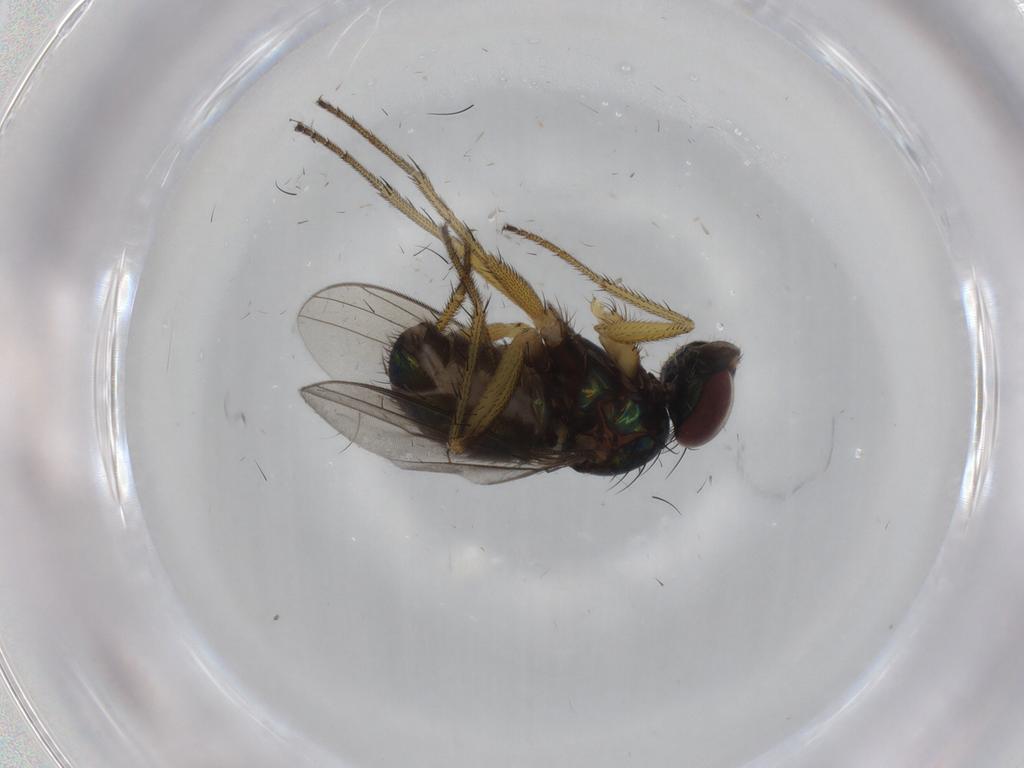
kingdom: Animalia
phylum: Arthropoda
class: Insecta
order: Diptera
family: Dolichopodidae
